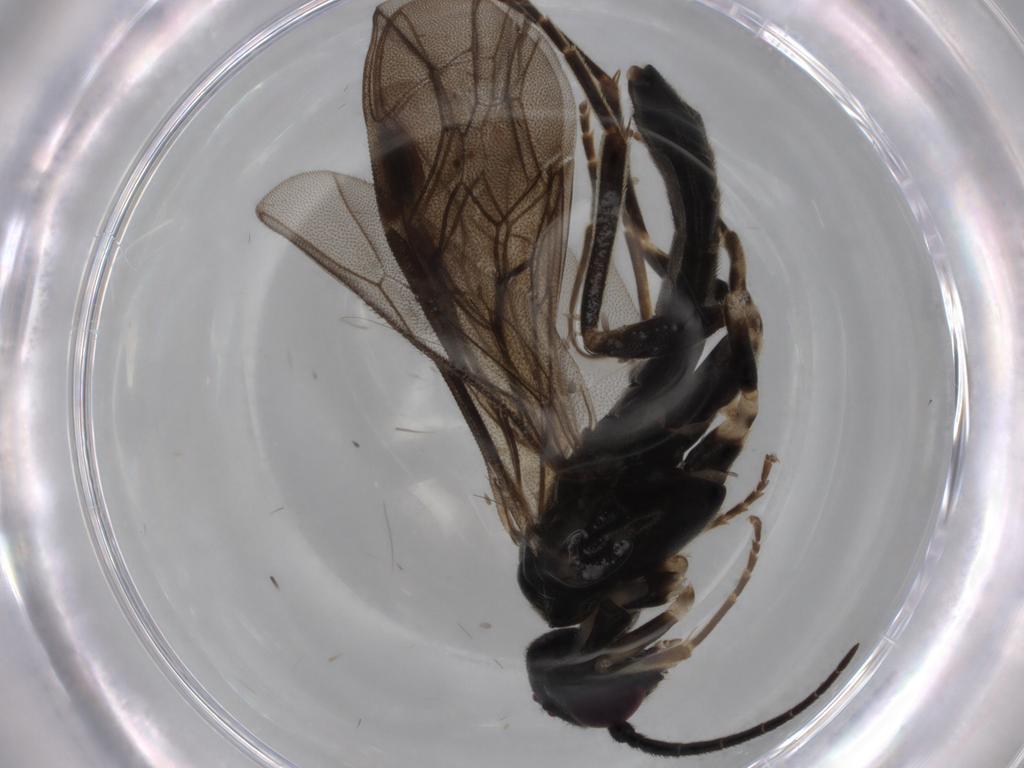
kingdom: Animalia
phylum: Arthropoda
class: Insecta
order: Hymenoptera
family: Tenthredinidae
